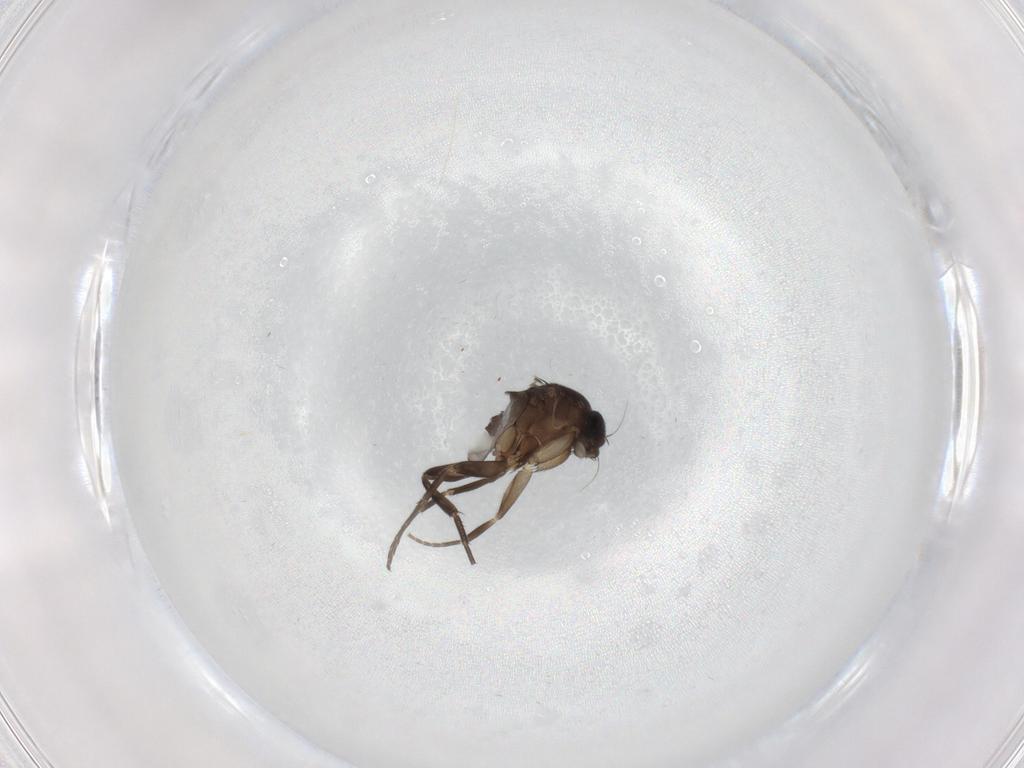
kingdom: Animalia
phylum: Arthropoda
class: Insecta
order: Diptera
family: Phoridae
